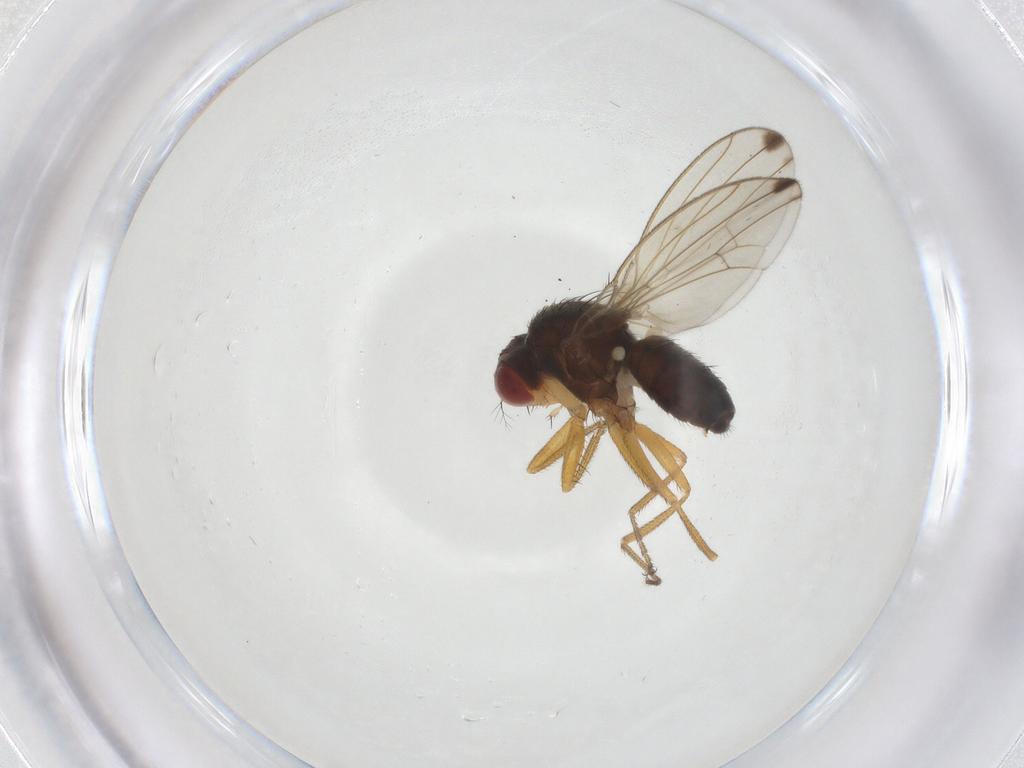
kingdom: Animalia
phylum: Arthropoda
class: Insecta
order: Diptera
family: Drosophilidae
